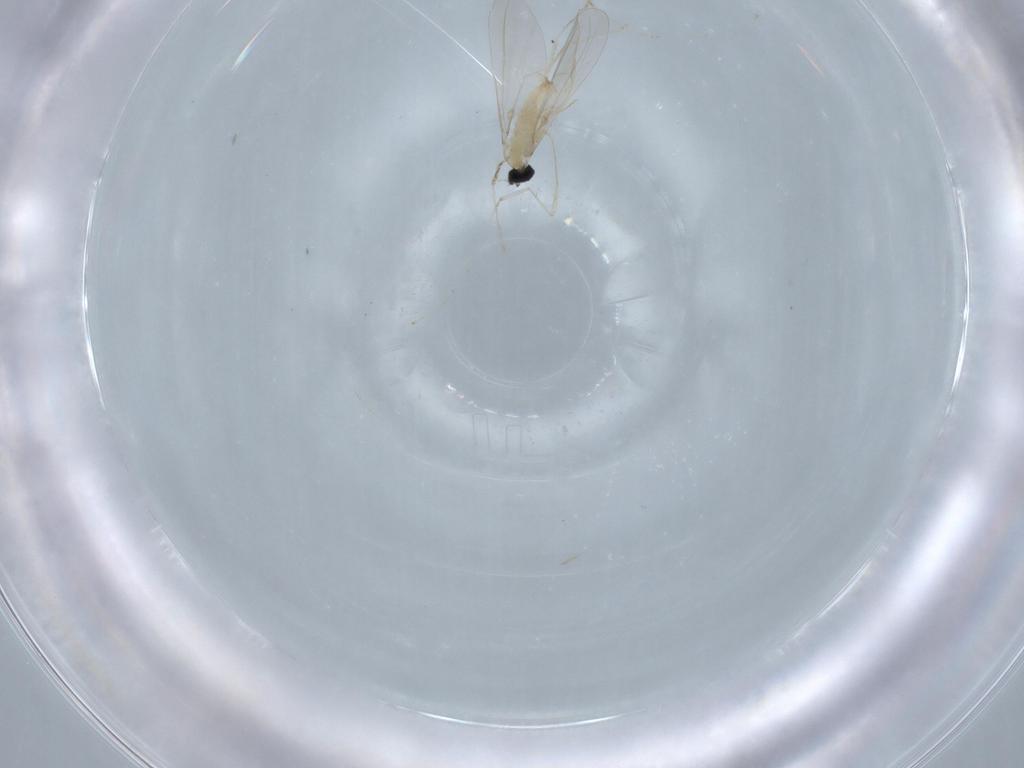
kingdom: Animalia
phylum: Arthropoda
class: Insecta
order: Diptera
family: Cecidomyiidae
